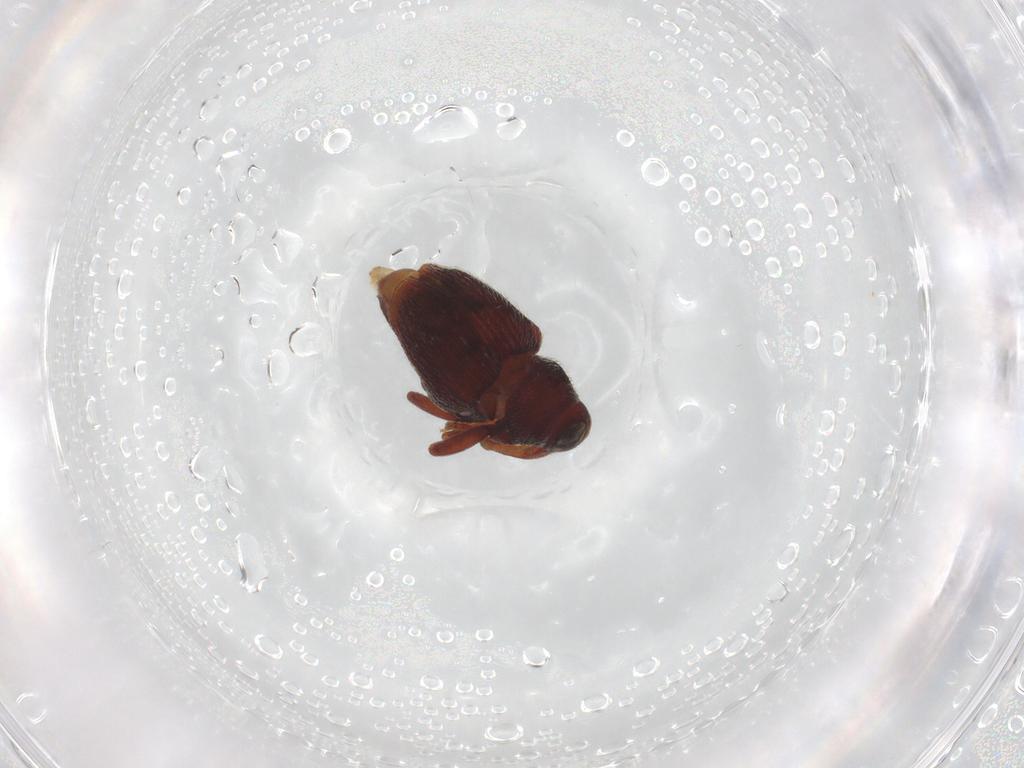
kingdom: Animalia
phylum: Arthropoda
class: Insecta
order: Coleoptera
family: Curculionidae
